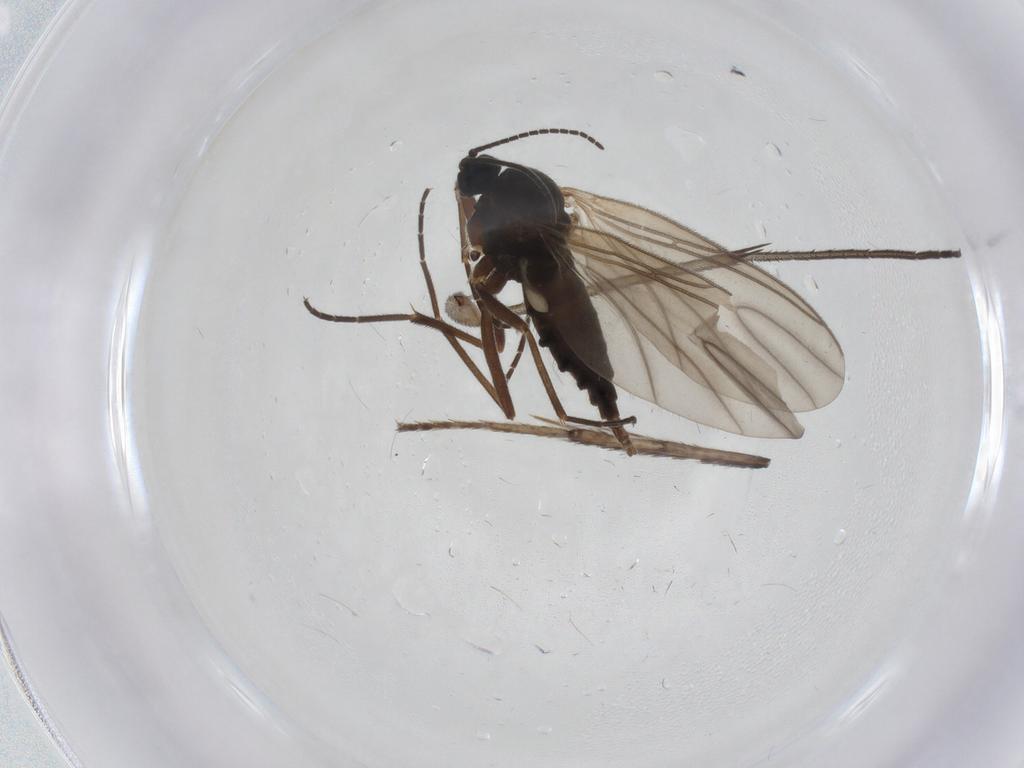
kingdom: Animalia
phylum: Arthropoda
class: Insecta
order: Diptera
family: Sciaridae
